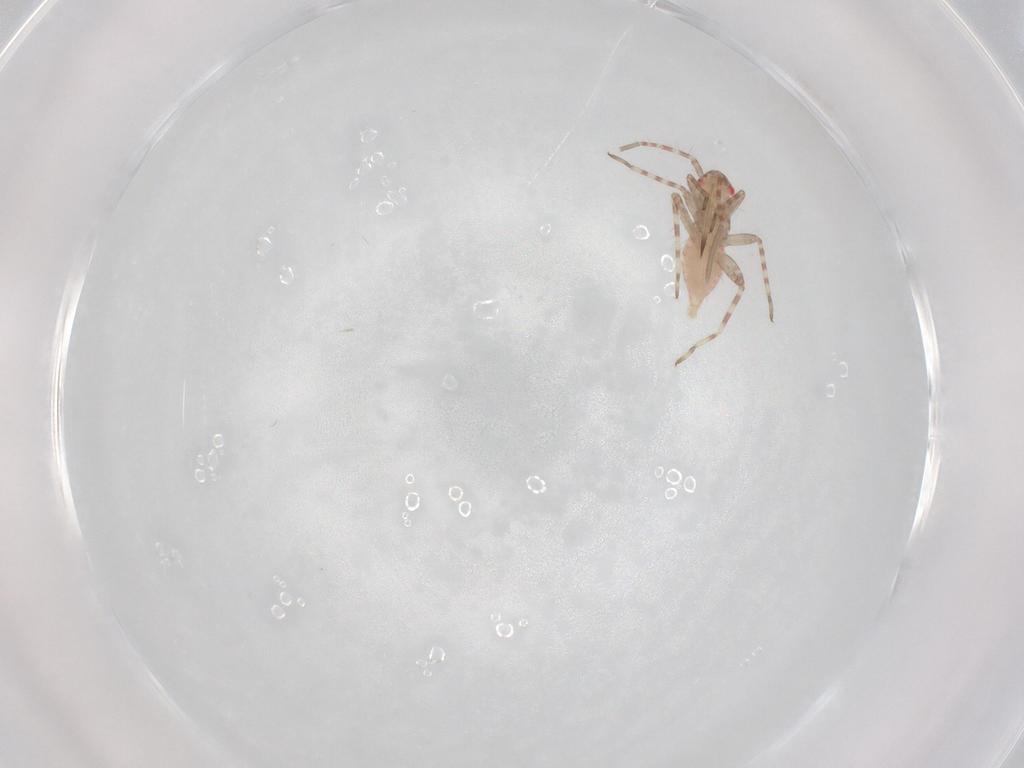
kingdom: Animalia
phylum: Arthropoda
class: Insecta
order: Hemiptera
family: Miridae
